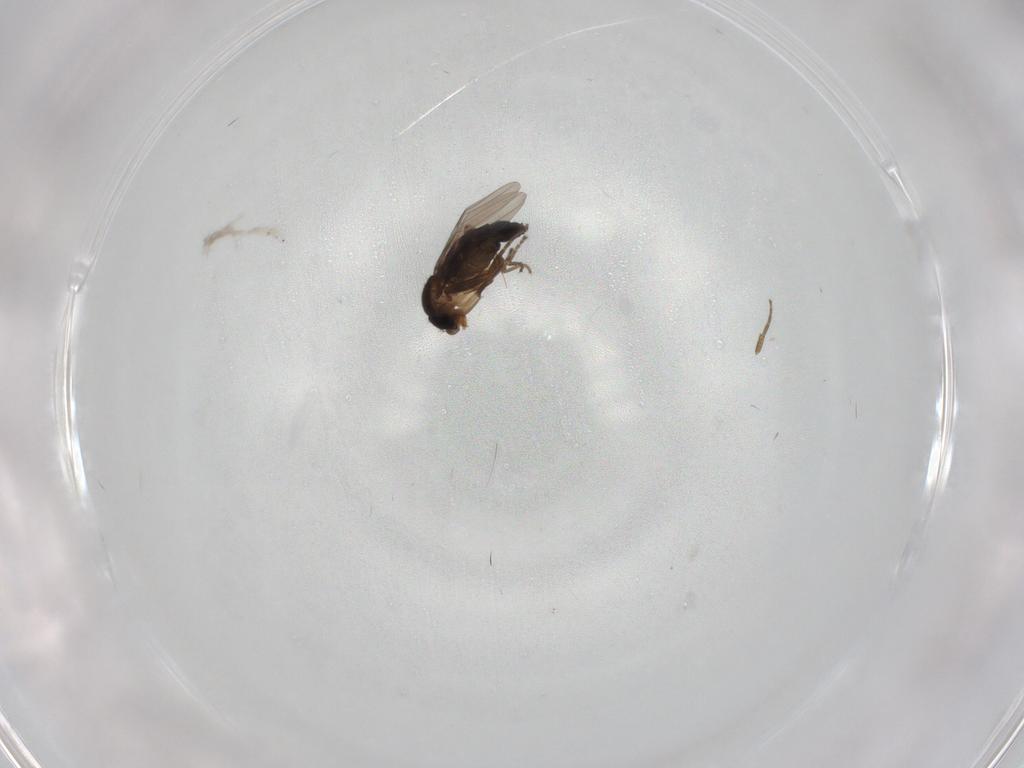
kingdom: Animalia
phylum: Arthropoda
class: Insecta
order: Diptera
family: Phoridae
